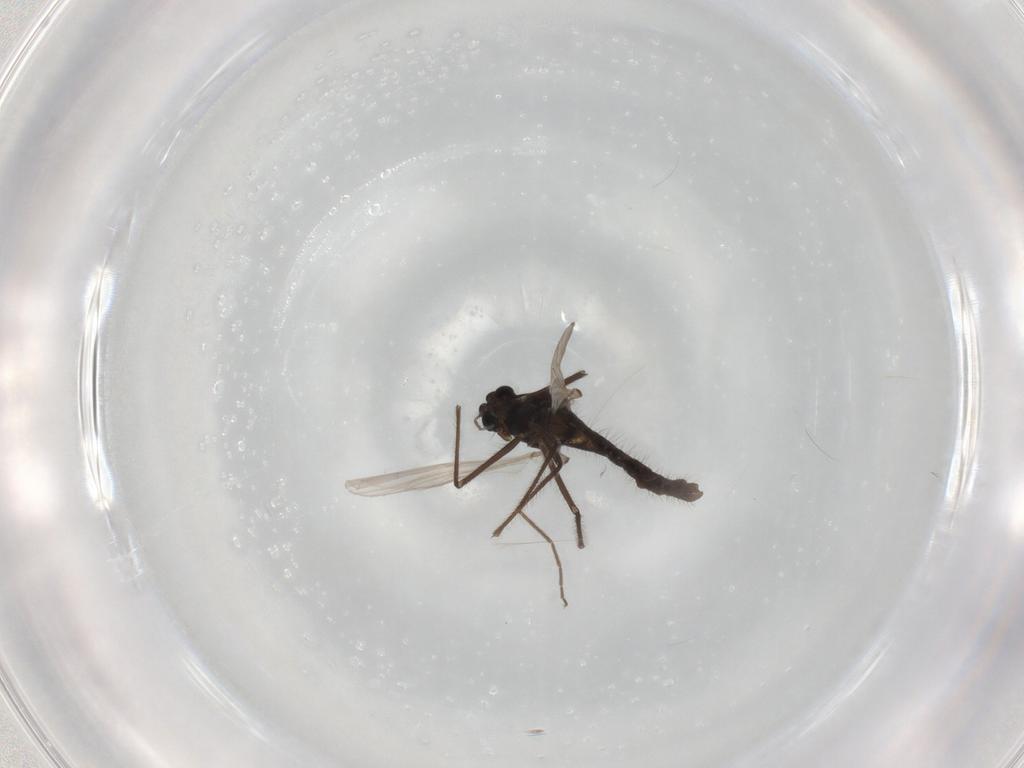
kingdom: Animalia
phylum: Arthropoda
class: Insecta
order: Diptera
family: Chironomidae
